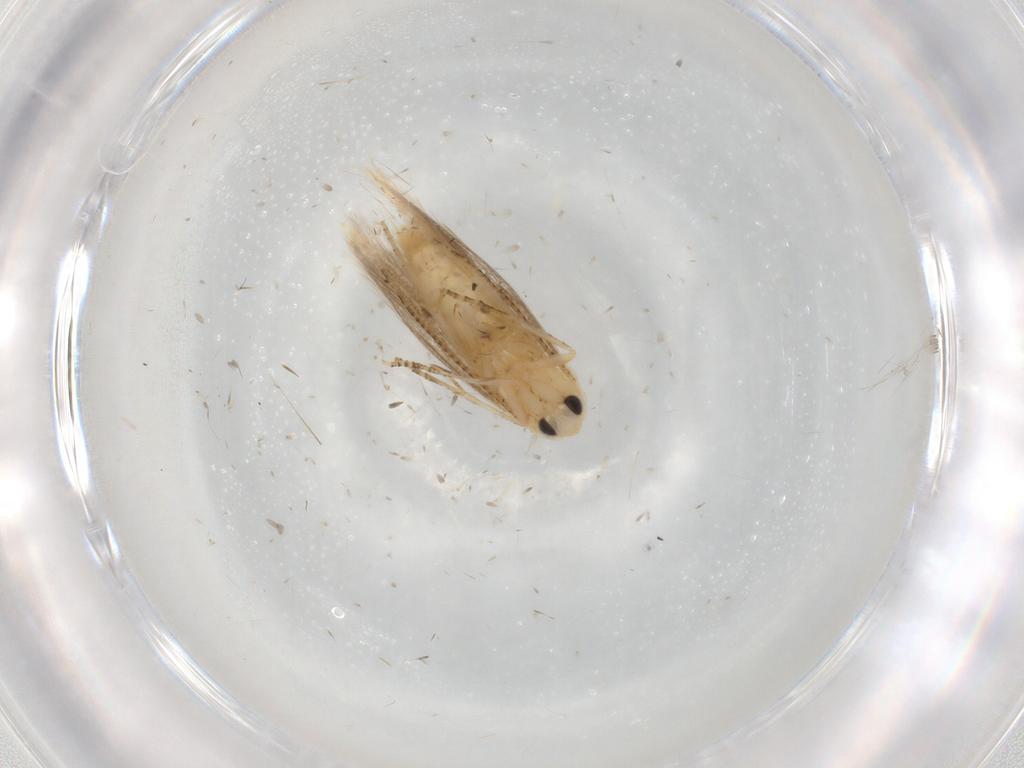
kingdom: Animalia
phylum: Arthropoda
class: Insecta
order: Lepidoptera
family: Bucculatricidae
